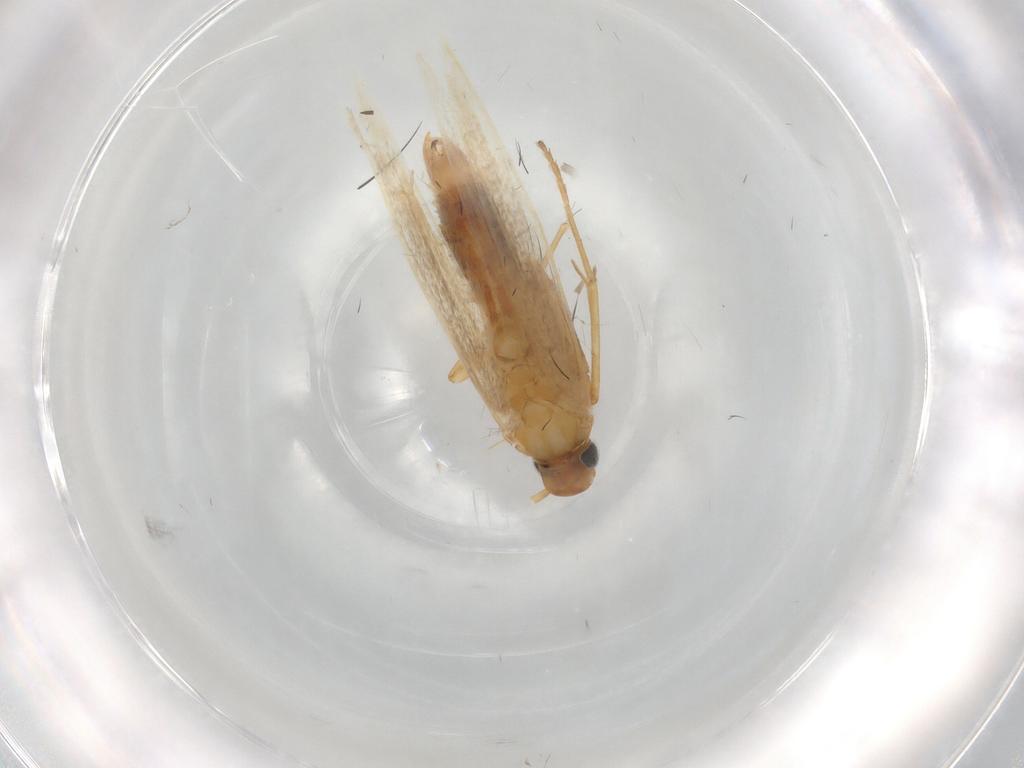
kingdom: Animalia
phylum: Arthropoda
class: Insecta
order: Lepidoptera
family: Batrachedridae
